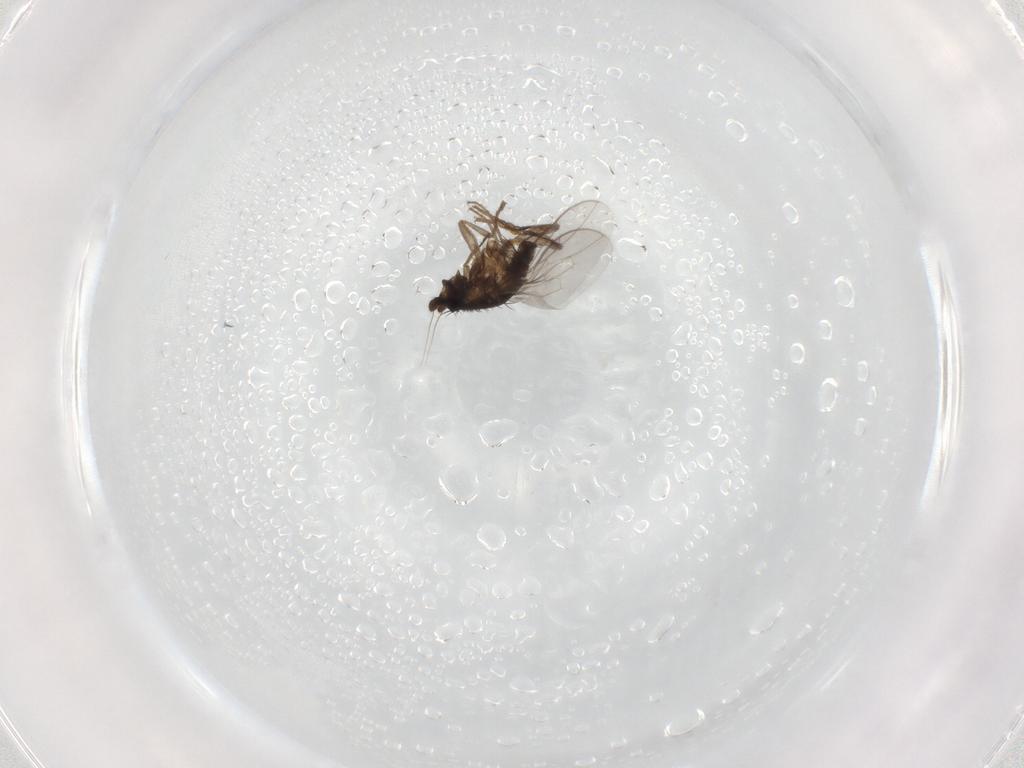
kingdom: Animalia
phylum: Arthropoda
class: Insecta
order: Diptera
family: Sphaeroceridae
